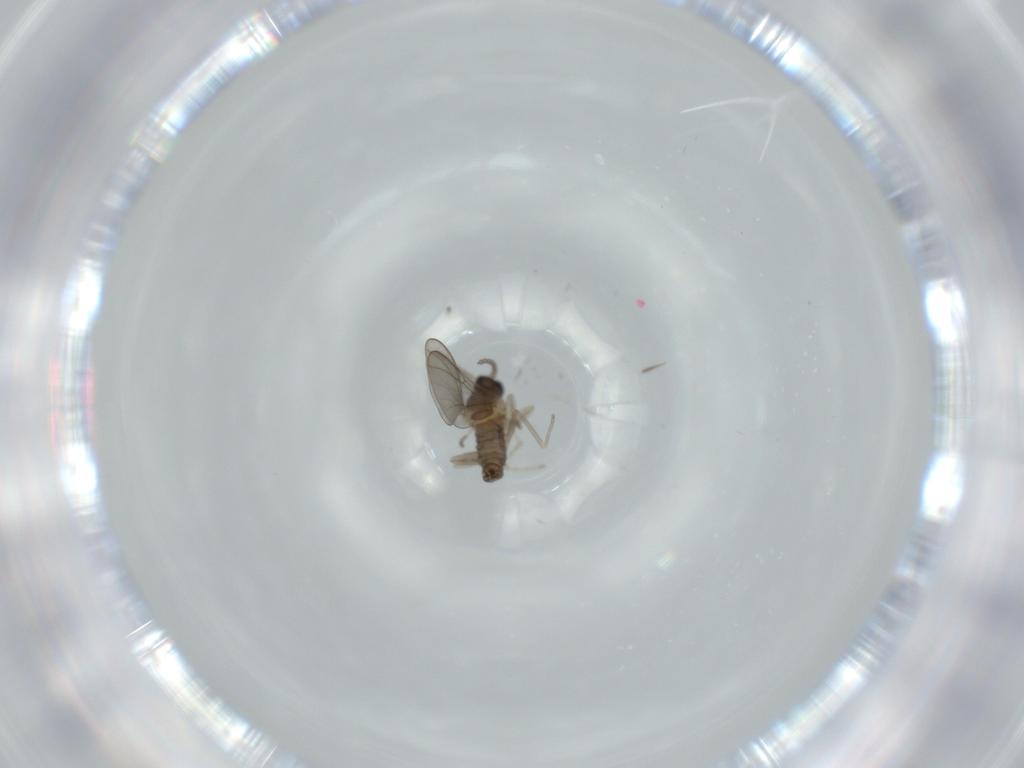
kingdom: Animalia
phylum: Arthropoda
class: Insecta
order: Diptera
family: Cecidomyiidae
